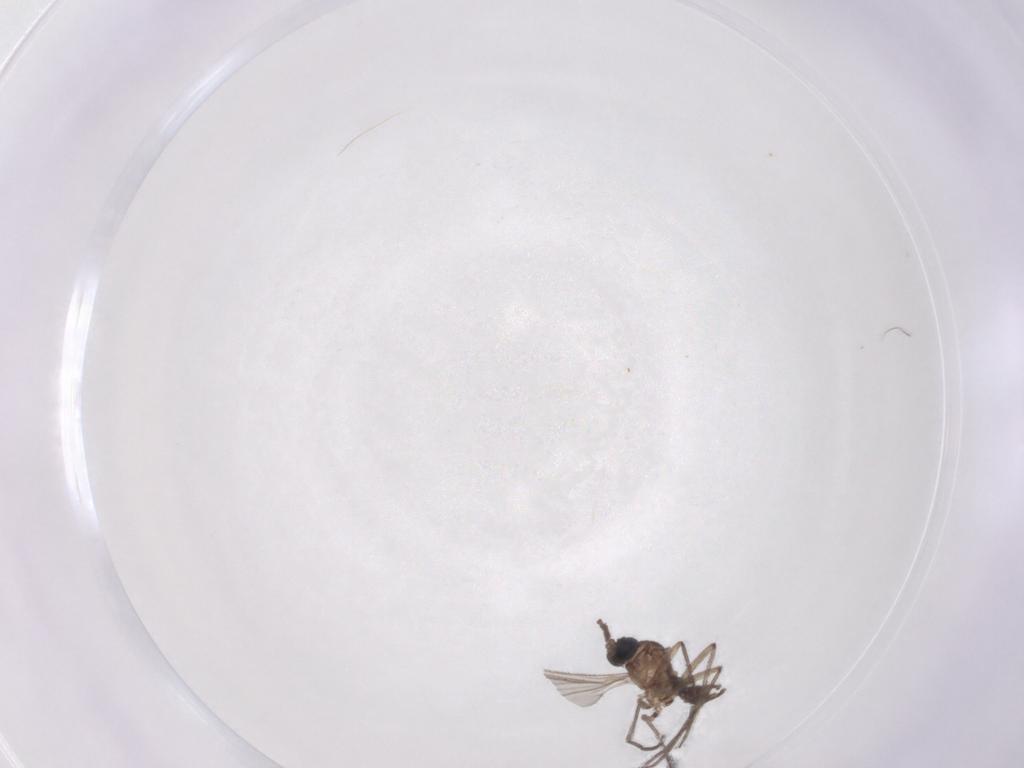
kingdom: Animalia
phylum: Arthropoda
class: Insecta
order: Diptera
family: Sciaridae
